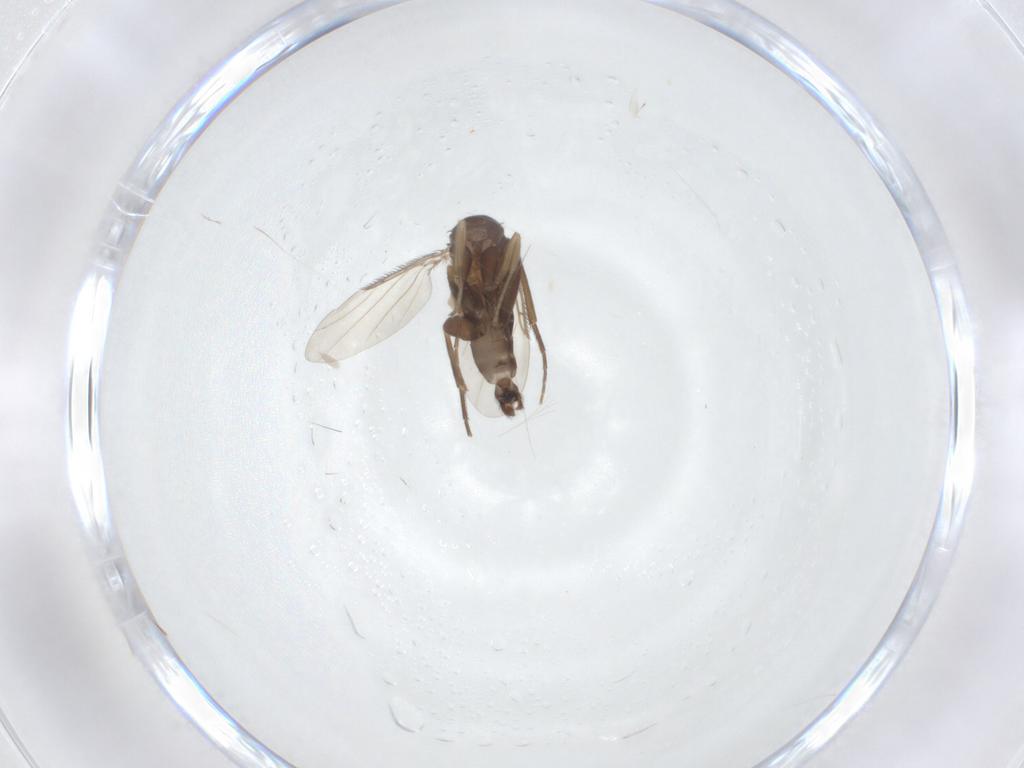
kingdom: Animalia
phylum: Arthropoda
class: Insecta
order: Diptera
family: Phoridae
